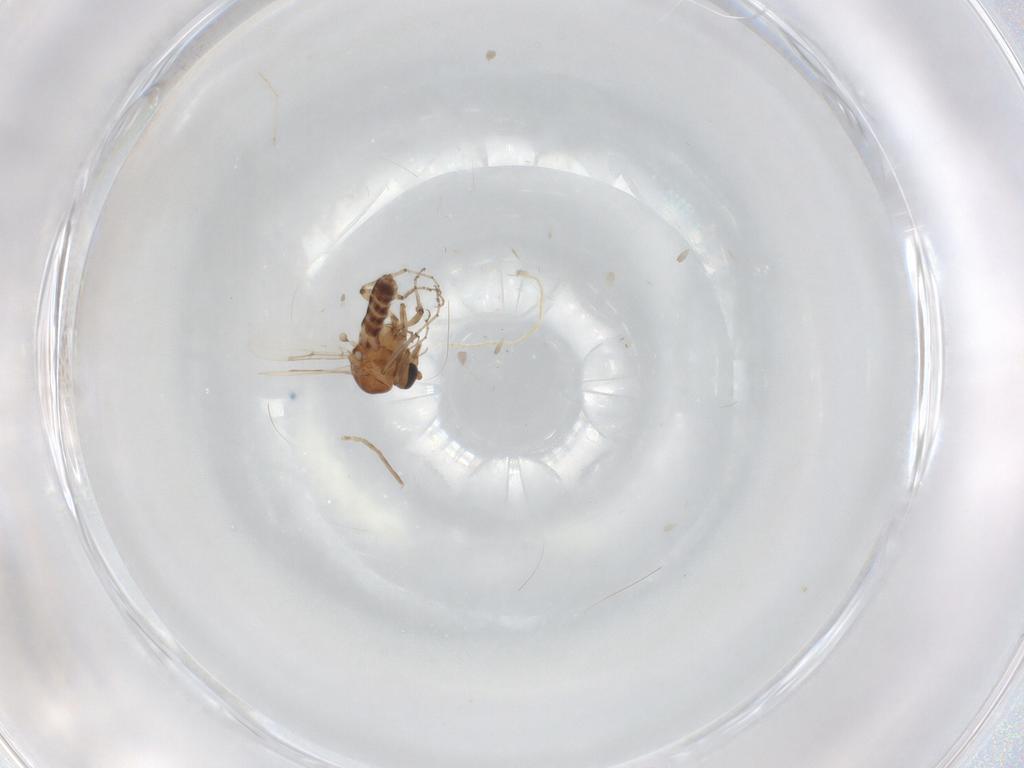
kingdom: Animalia
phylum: Arthropoda
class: Insecta
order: Diptera
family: Ceratopogonidae
